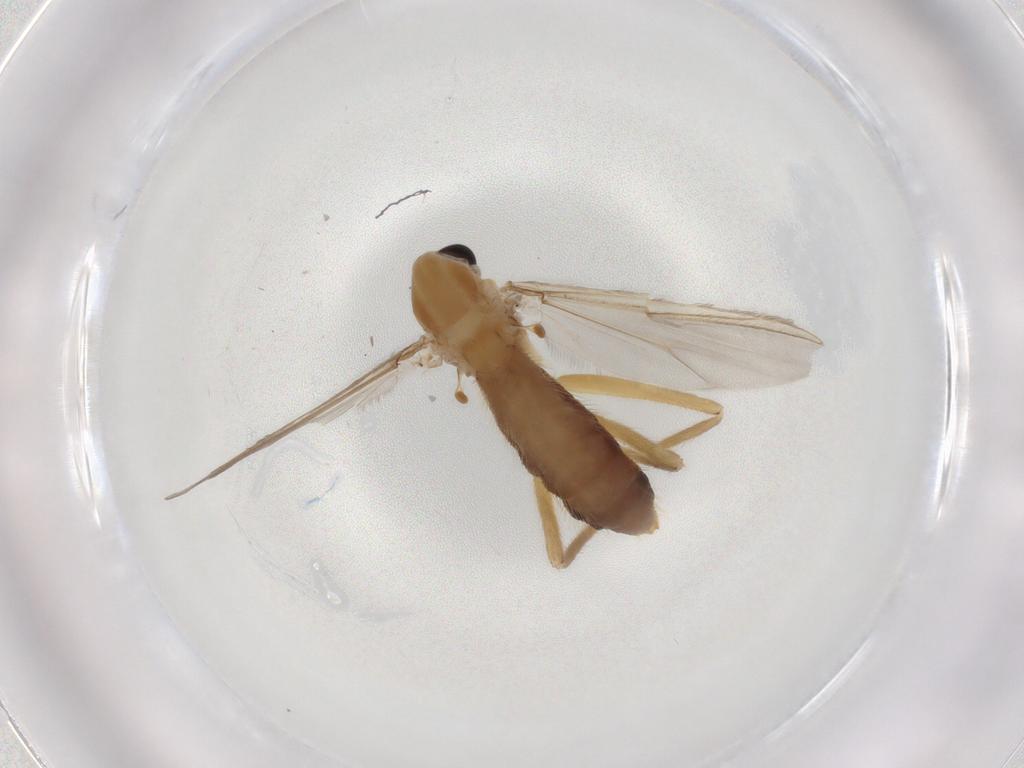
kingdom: Animalia
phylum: Arthropoda
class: Insecta
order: Diptera
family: Chironomidae
